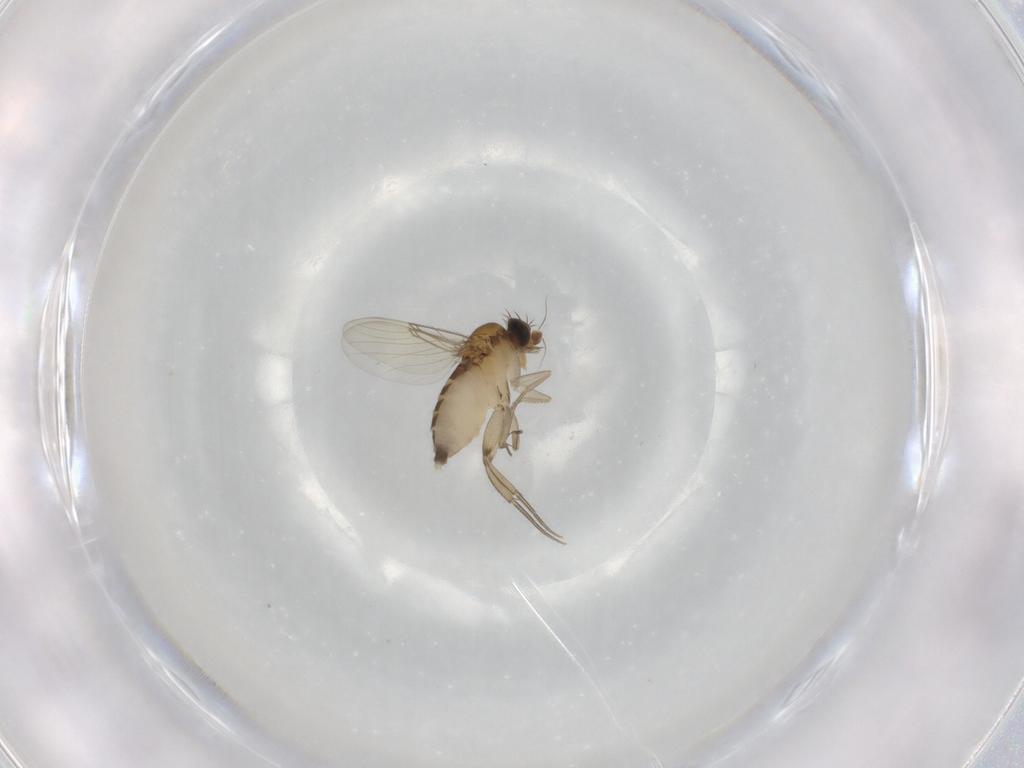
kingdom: Animalia
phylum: Arthropoda
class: Insecta
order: Diptera
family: Phoridae
